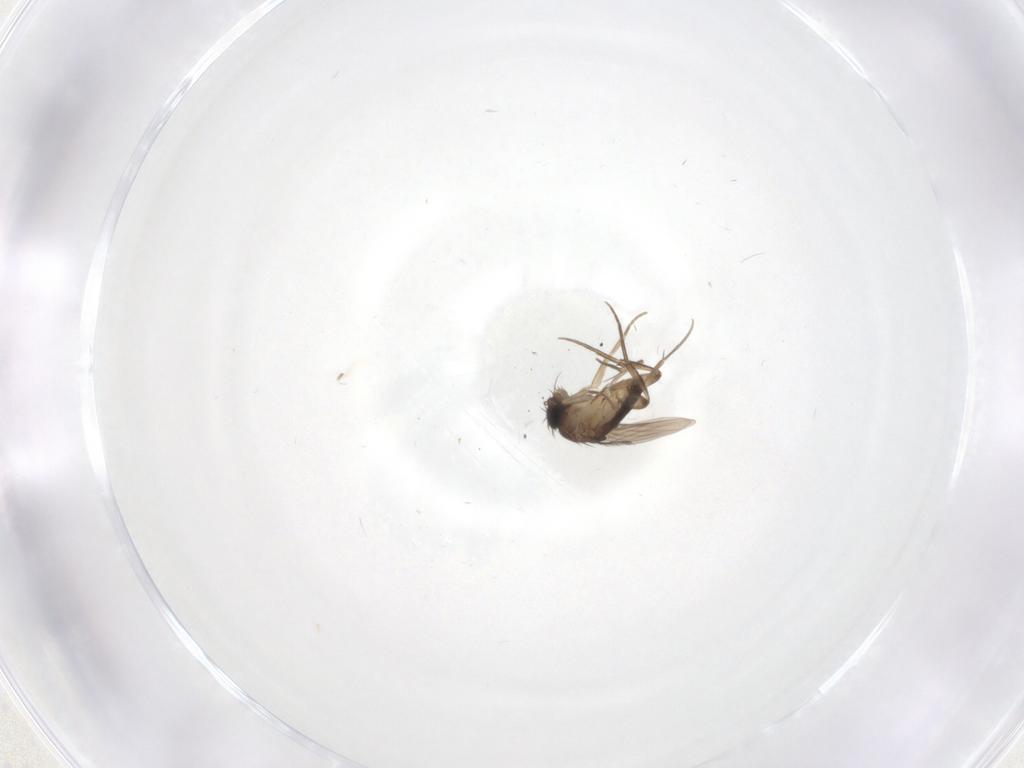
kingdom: Animalia
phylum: Arthropoda
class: Insecta
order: Diptera
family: Phoridae
